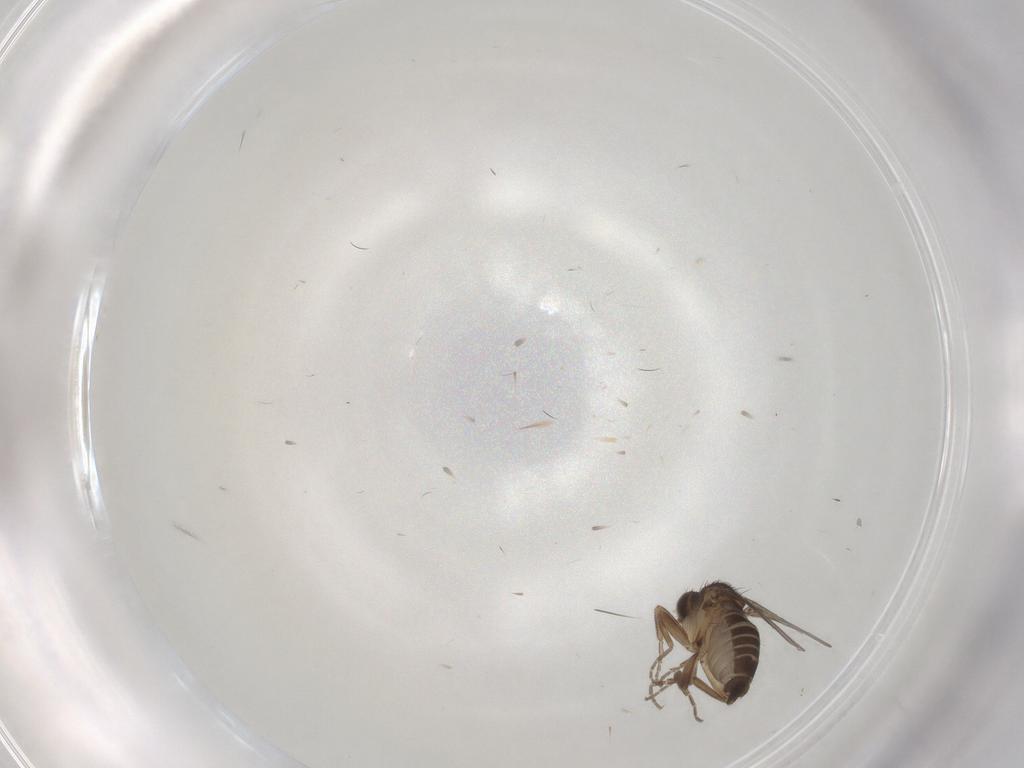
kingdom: Animalia
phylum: Arthropoda
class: Insecta
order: Diptera
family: Phoridae
